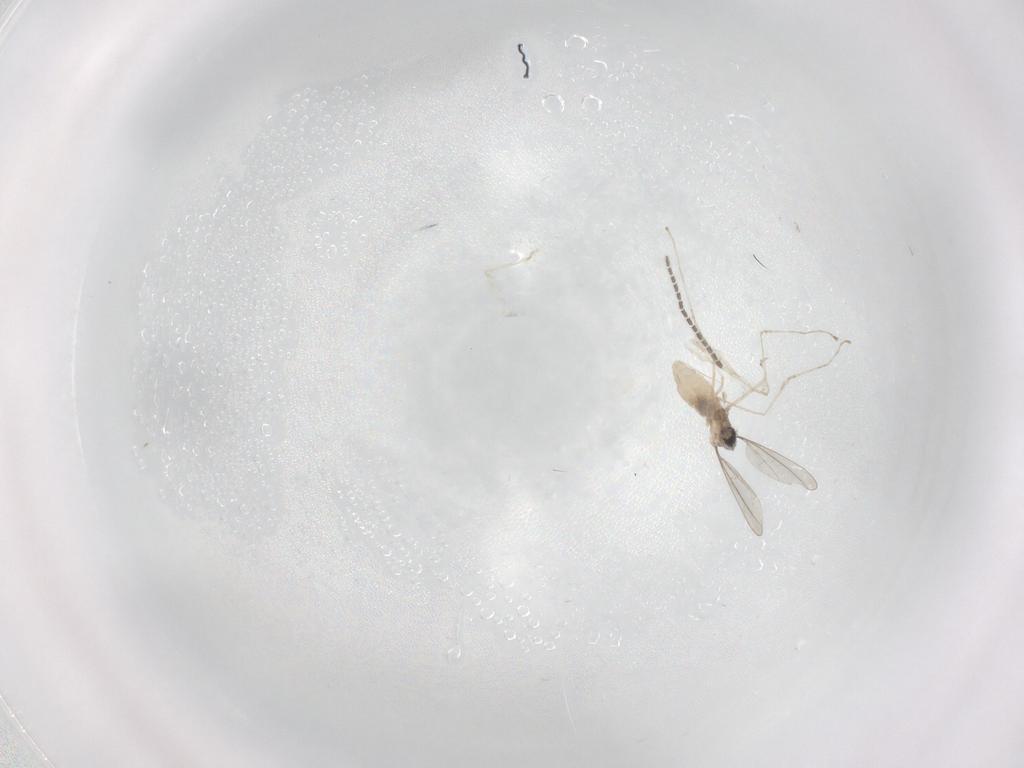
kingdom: Animalia
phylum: Arthropoda
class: Insecta
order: Diptera
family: Sciaridae
